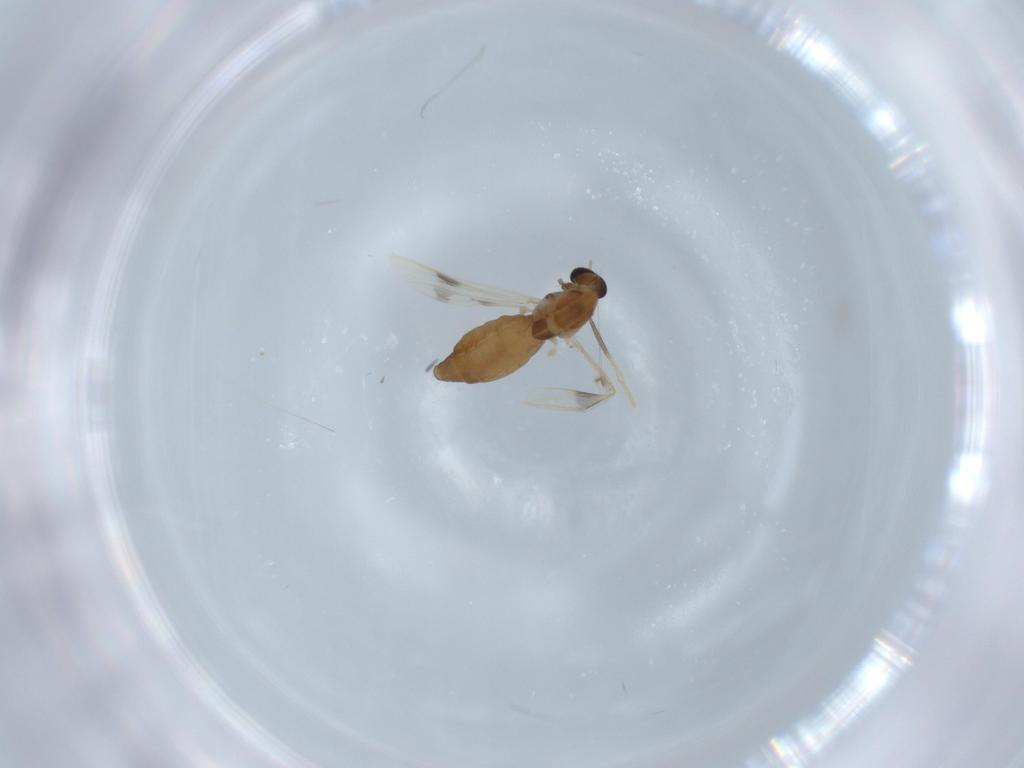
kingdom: Animalia
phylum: Arthropoda
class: Insecta
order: Diptera
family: Chironomidae
